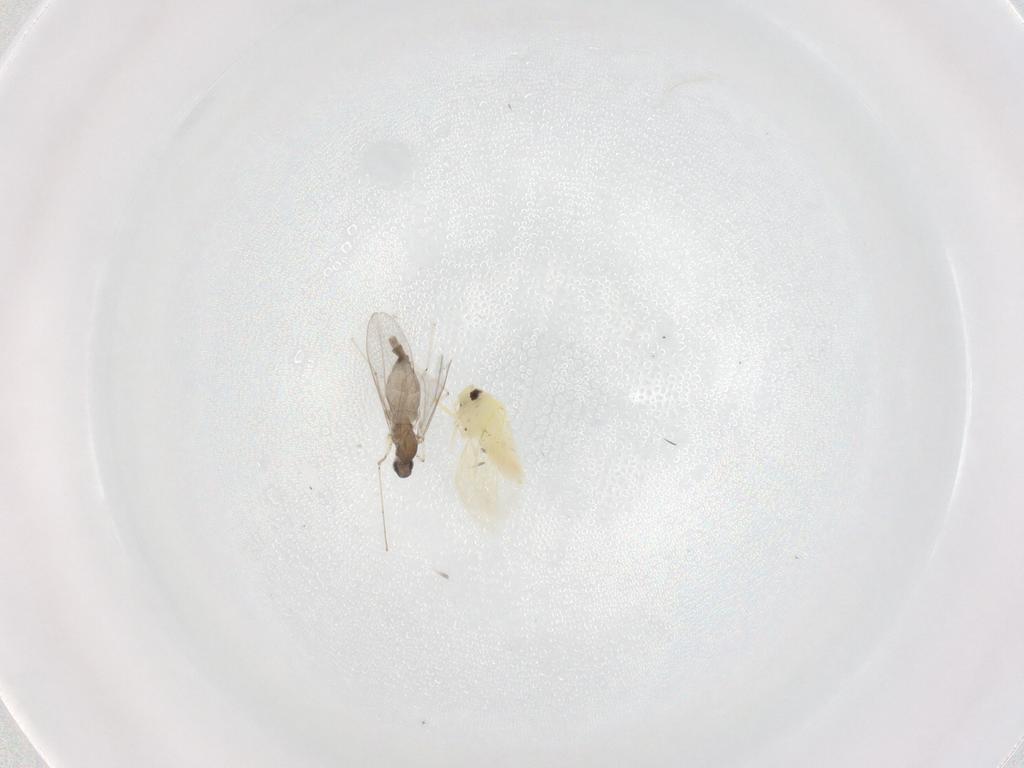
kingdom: Animalia
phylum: Arthropoda
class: Insecta
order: Diptera
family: Cecidomyiidae
